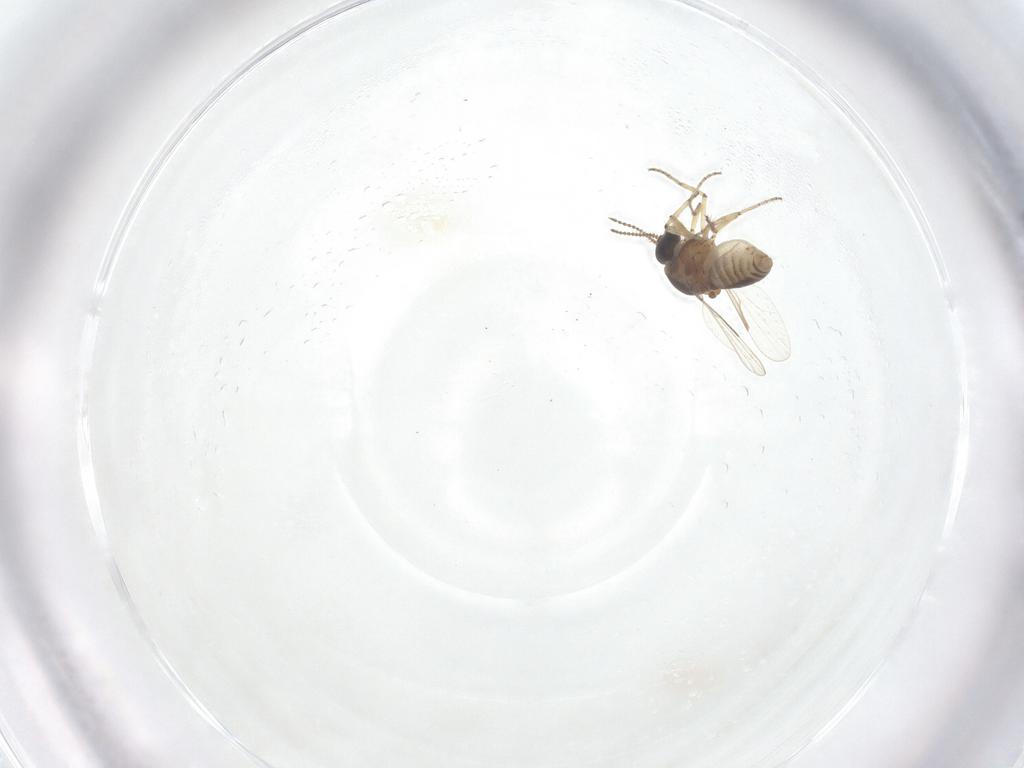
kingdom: Animalia
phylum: Arthropoda
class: Insecta
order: Diptera
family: Ceratopogonidae
